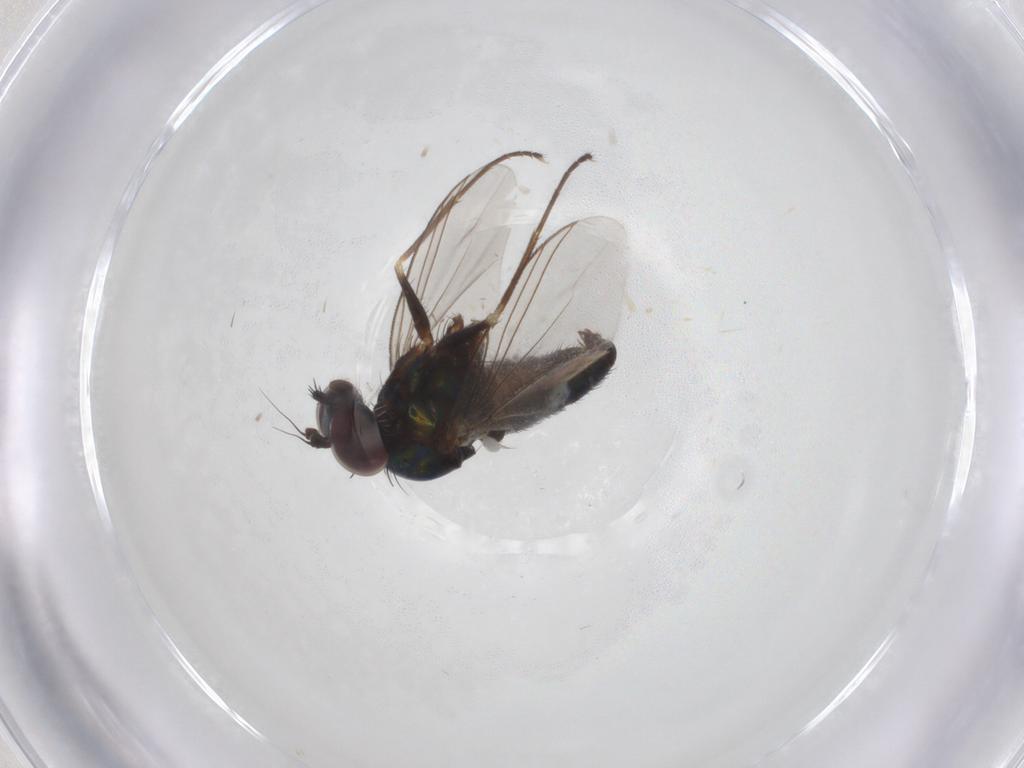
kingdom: Animalia
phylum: Arthropoda
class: Insecta
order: Diptera
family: Dolichopodidae
